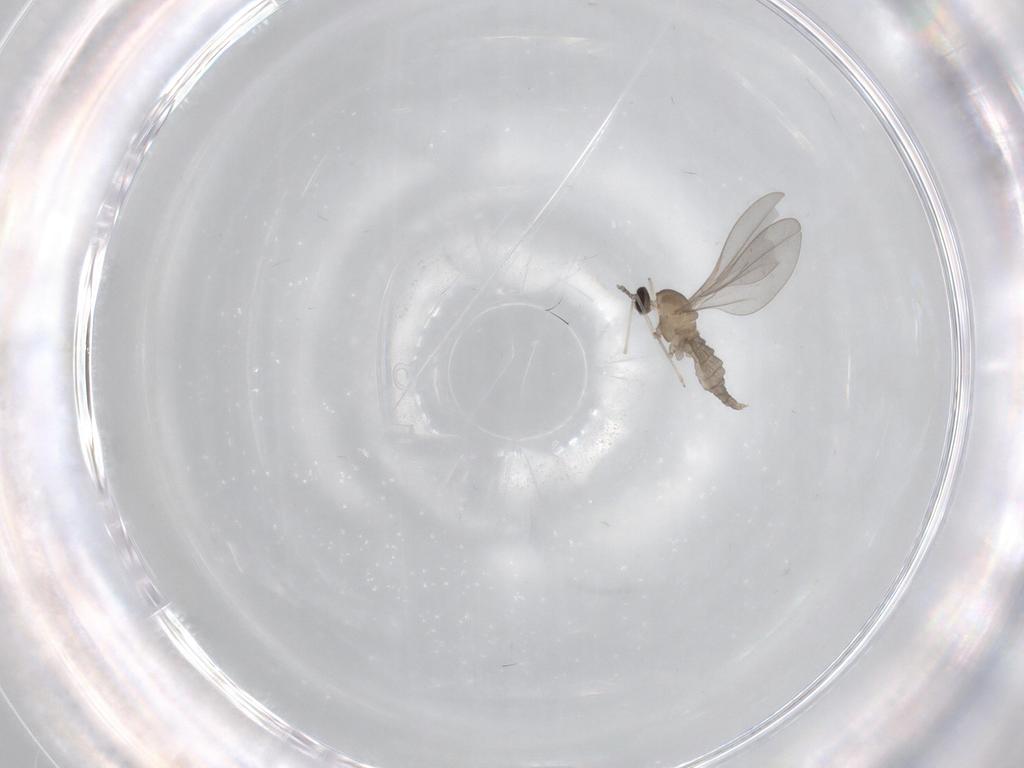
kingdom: Animalia
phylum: Arthropoda
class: Insecta
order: Diptera
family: Cecidomyiidae
